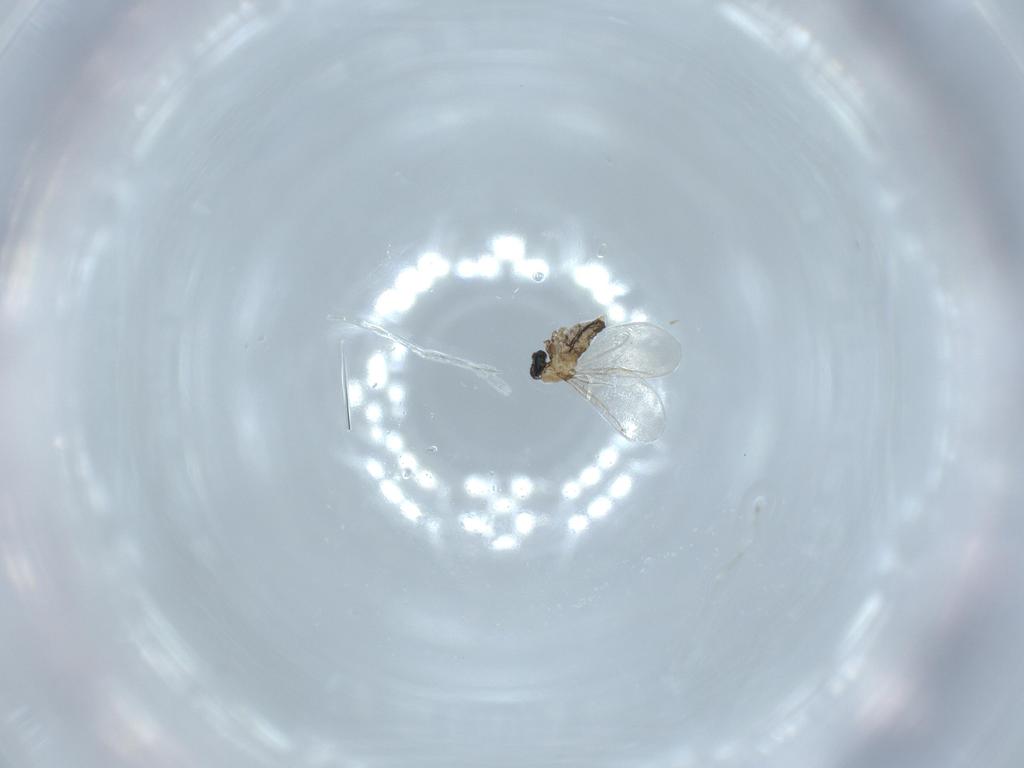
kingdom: Animalia
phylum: Arthropoda
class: Insecta
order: Diptera
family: Cecidomyiidae
